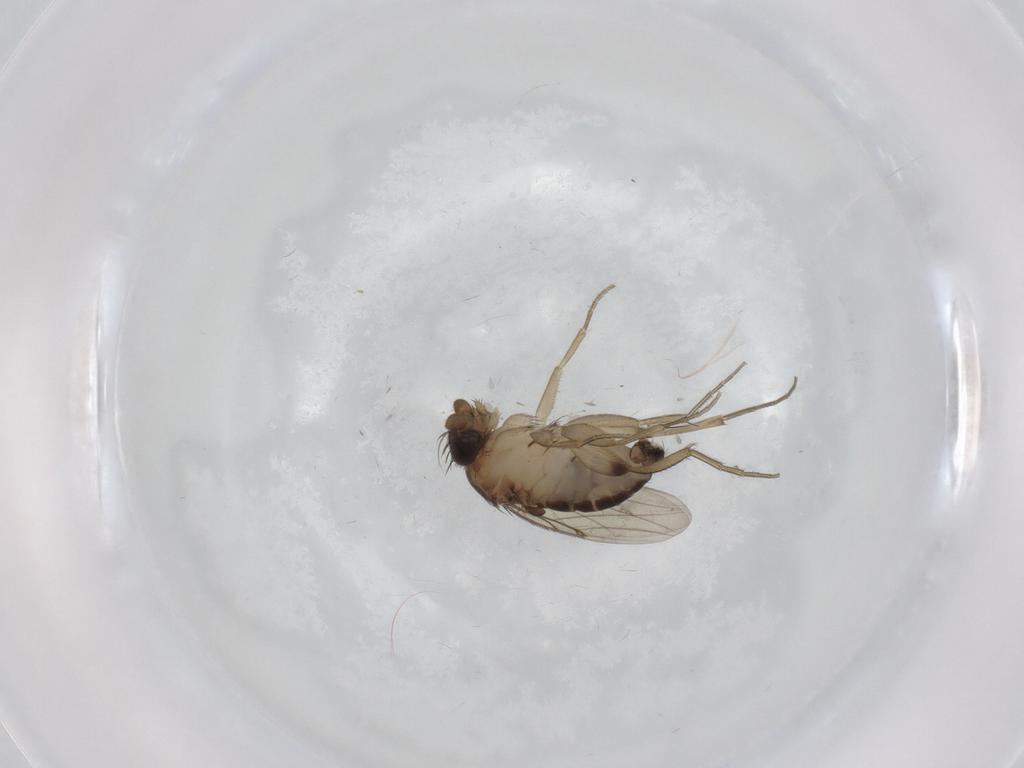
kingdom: Animalia
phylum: Arthropoda
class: Insecta
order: Diptera
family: Phoridae
